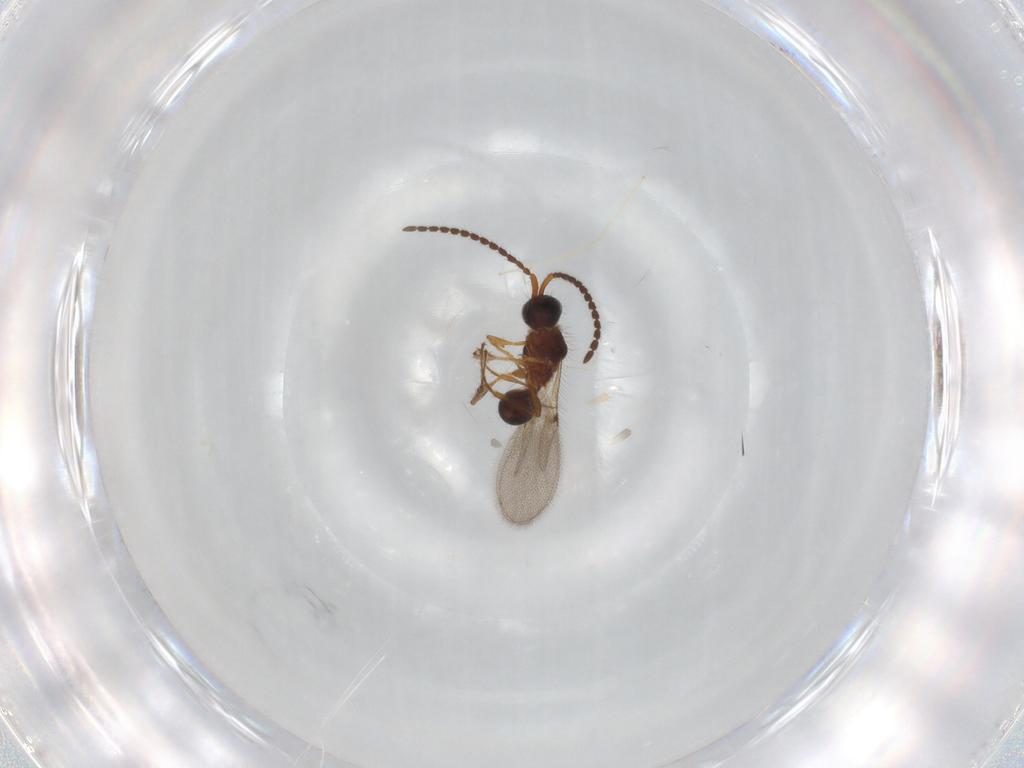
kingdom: Animalia
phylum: Arthropoda
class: Insecta
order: Hymenoptera
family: Diapriidae
